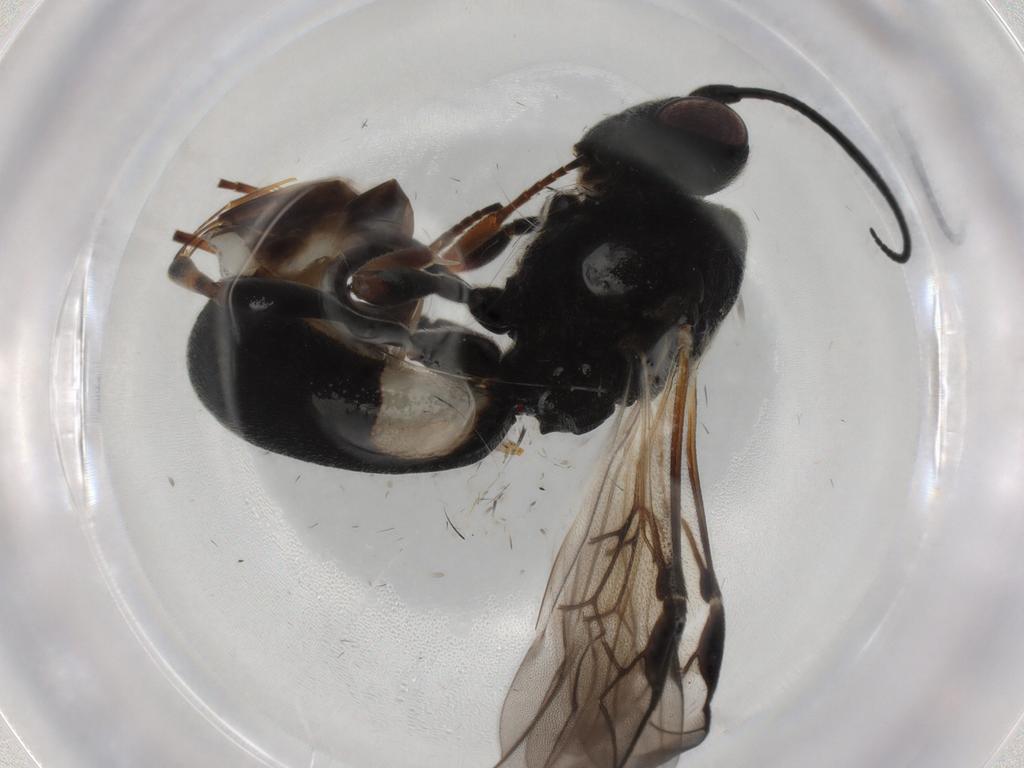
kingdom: Animalia
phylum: Arthropoda
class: Insecta
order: Hymenoptera
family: Braconidae
